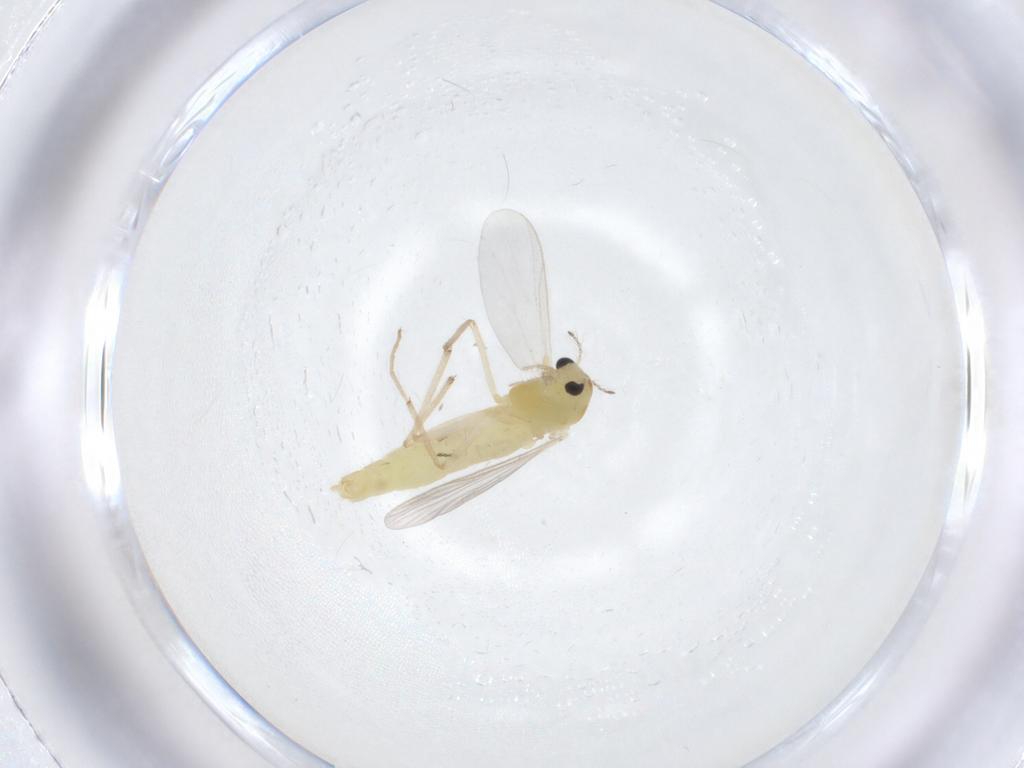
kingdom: Animalia
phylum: Arthropoda
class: Insecta
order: Diptera
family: Chironomidae
